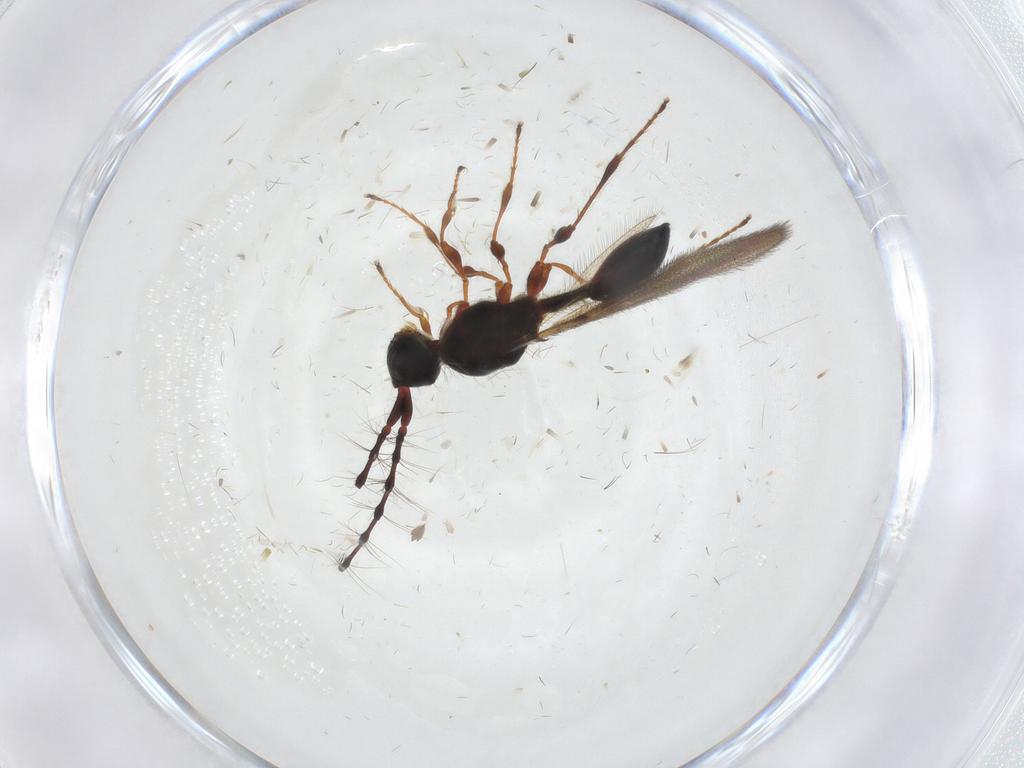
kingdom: Animalia
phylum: Arthropoda
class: Insecta
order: Hymenoptera
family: Diapriidae
